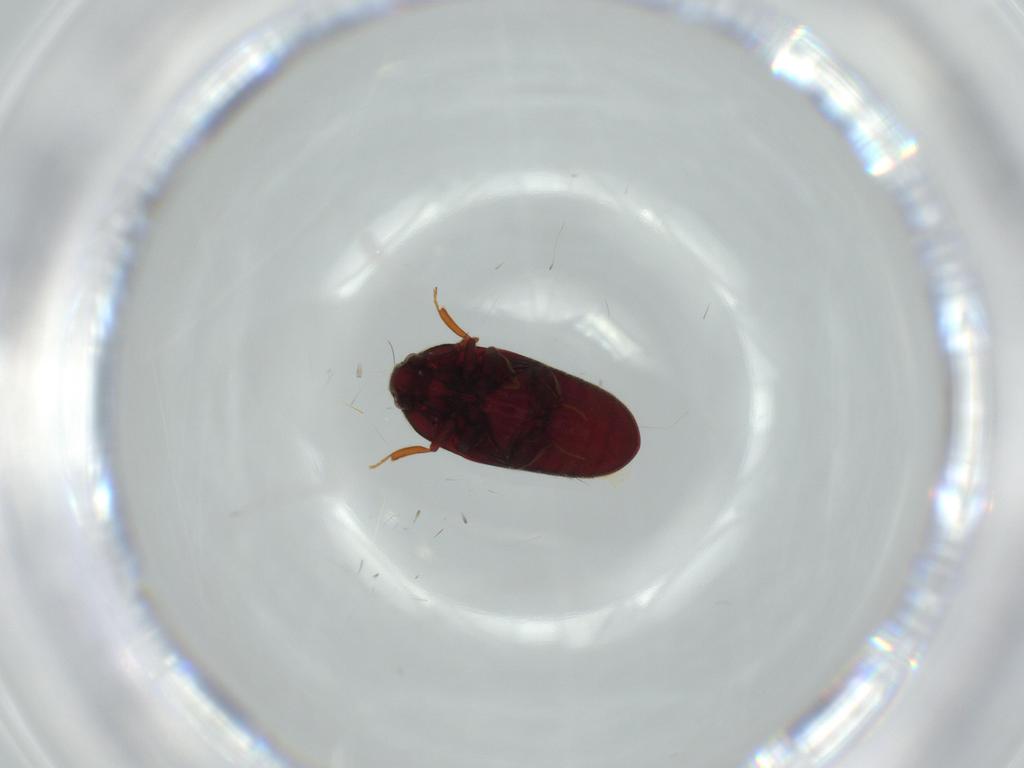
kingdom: Animalia
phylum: Arthropoda
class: Insecta
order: Coleoptera
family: Throscidae
